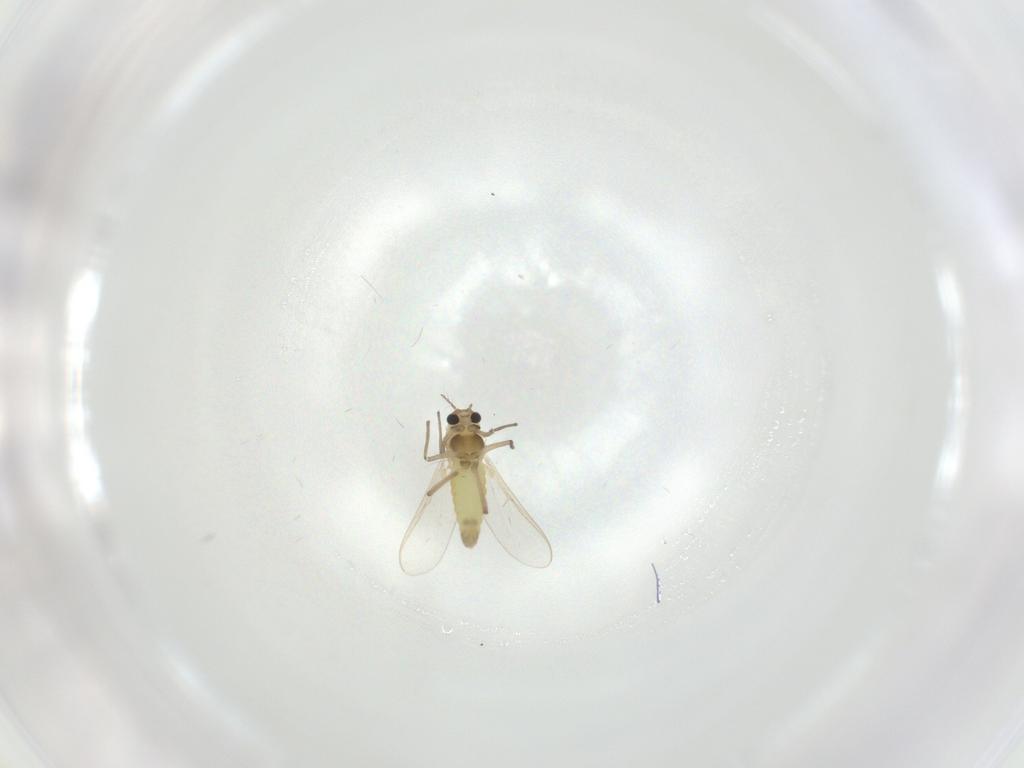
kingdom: Animalia
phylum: Arthropoda
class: Insecta
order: Diptera
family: Chironomidae
